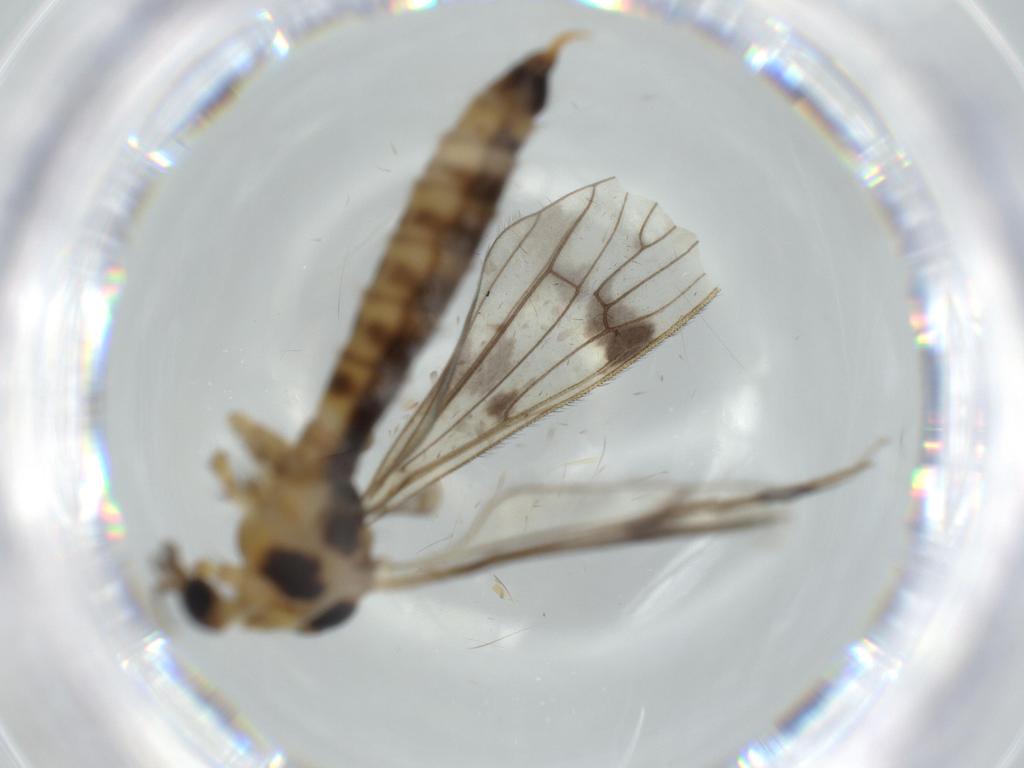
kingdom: Animalia
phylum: Arthropoda
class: Insecta
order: Diptera
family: Limoniidae
